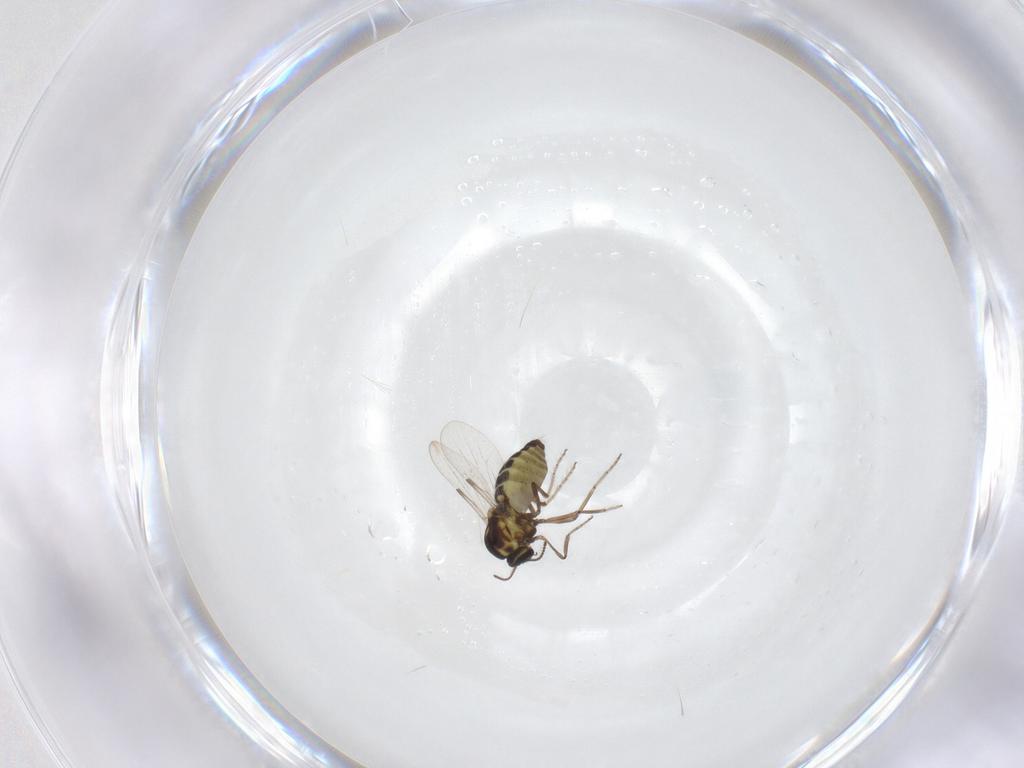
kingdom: Animalia
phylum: Arthropoda
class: Insecta
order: Diptera
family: Ceratopogonidae
